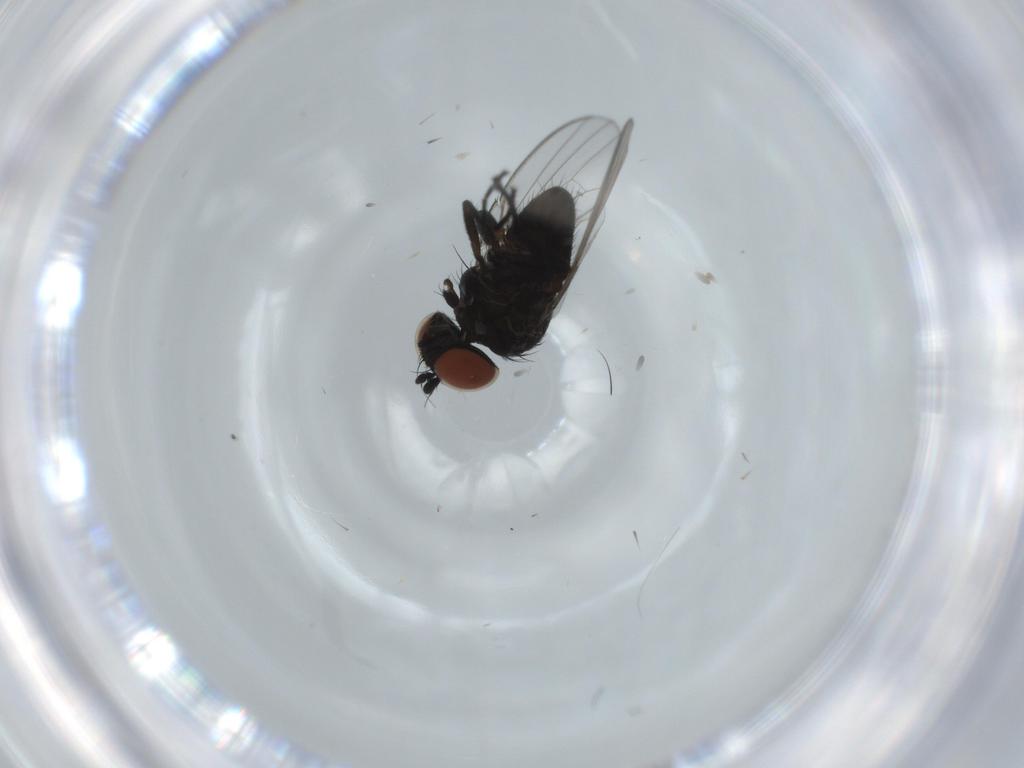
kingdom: Animalia
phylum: Arthropoda
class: Insecta
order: Diptera
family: Milichiidae
